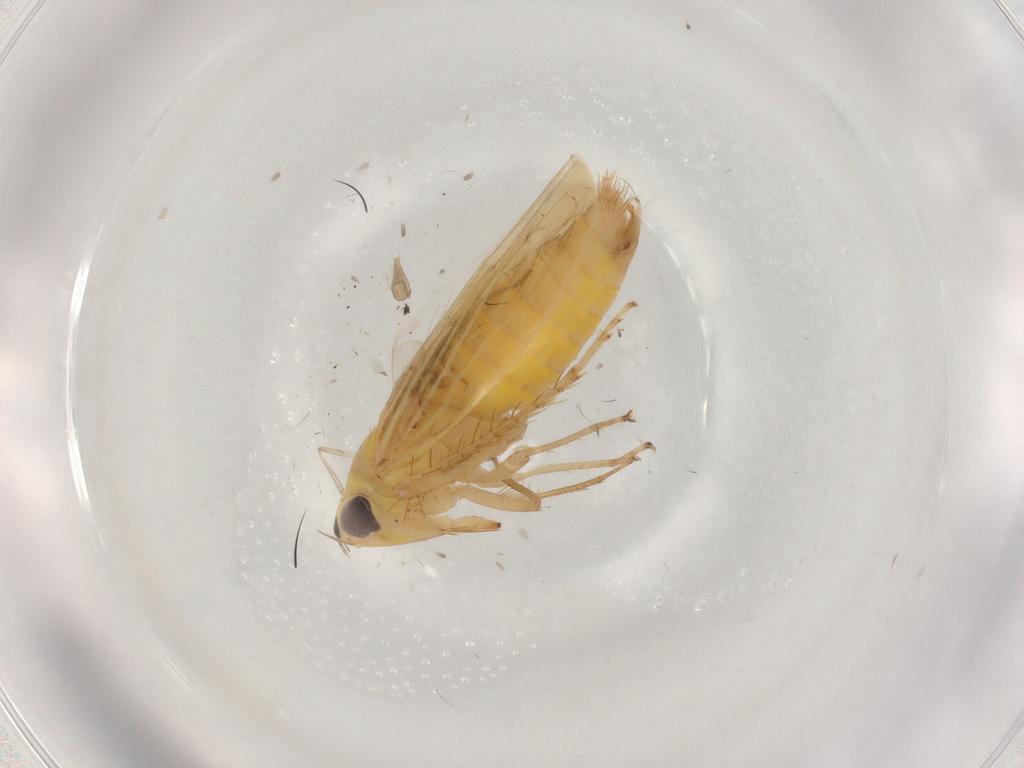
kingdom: Animalia
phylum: Arthropoda
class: Insecta
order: Hemiptera
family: Cicadellidae
